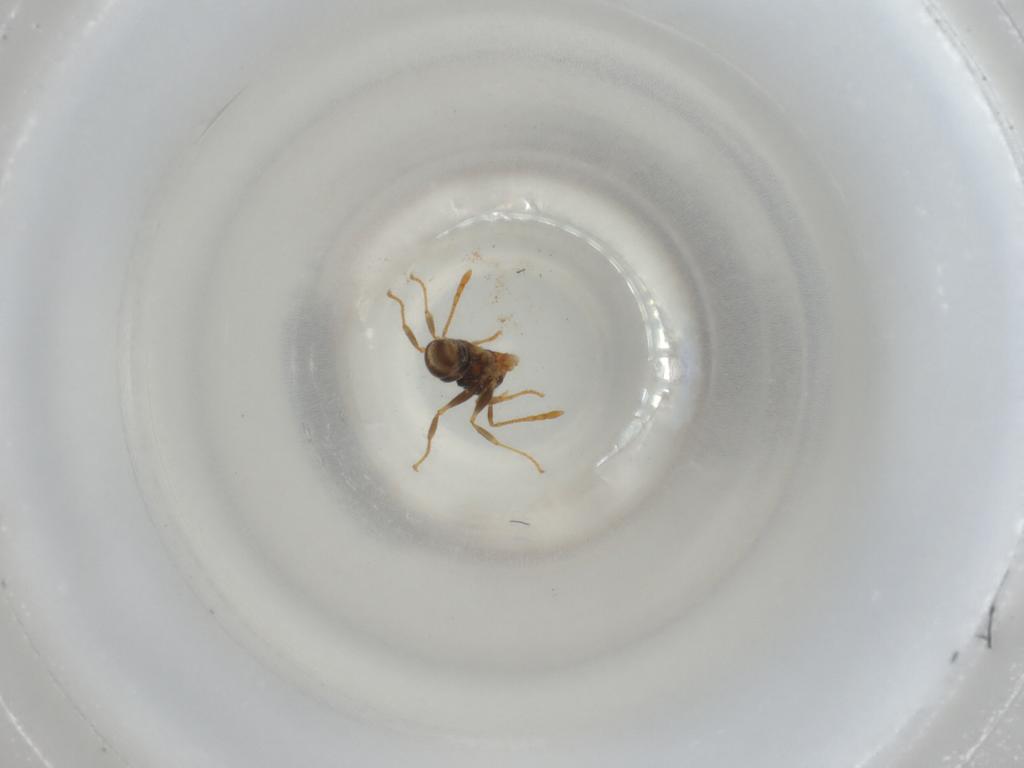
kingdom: Animalia
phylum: Arthropoda
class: Insecta
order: Hymenoptera
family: Formicidae
